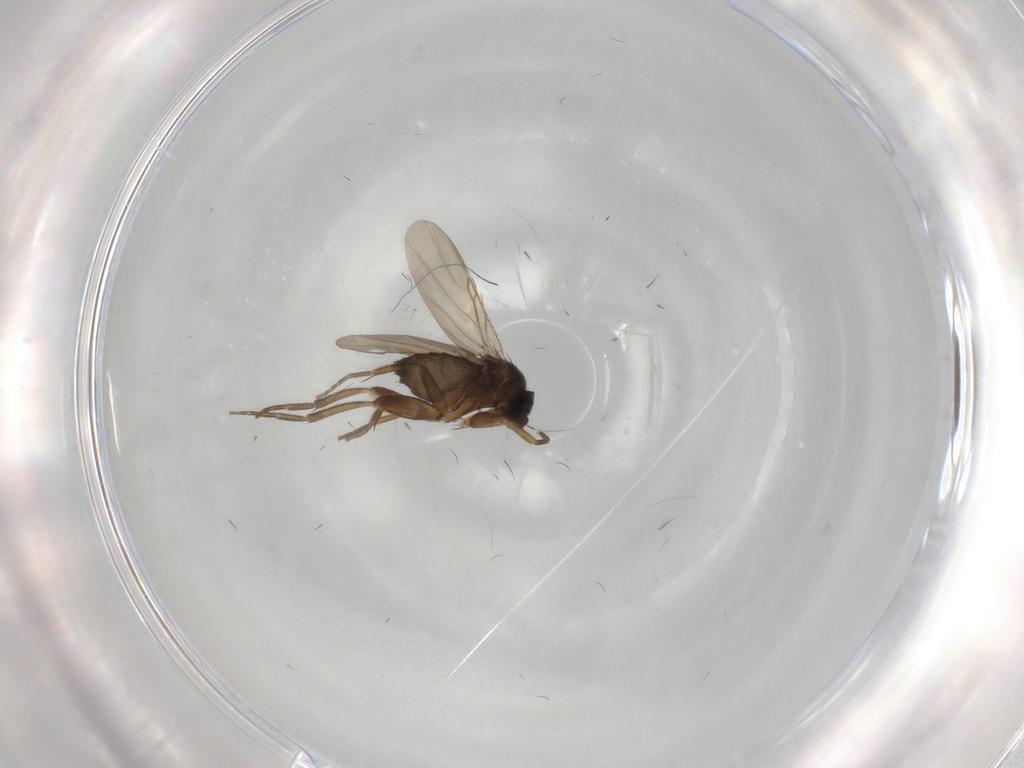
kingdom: Animalia
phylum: Arthropoda
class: Insecta
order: Diptera
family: Phoridae
